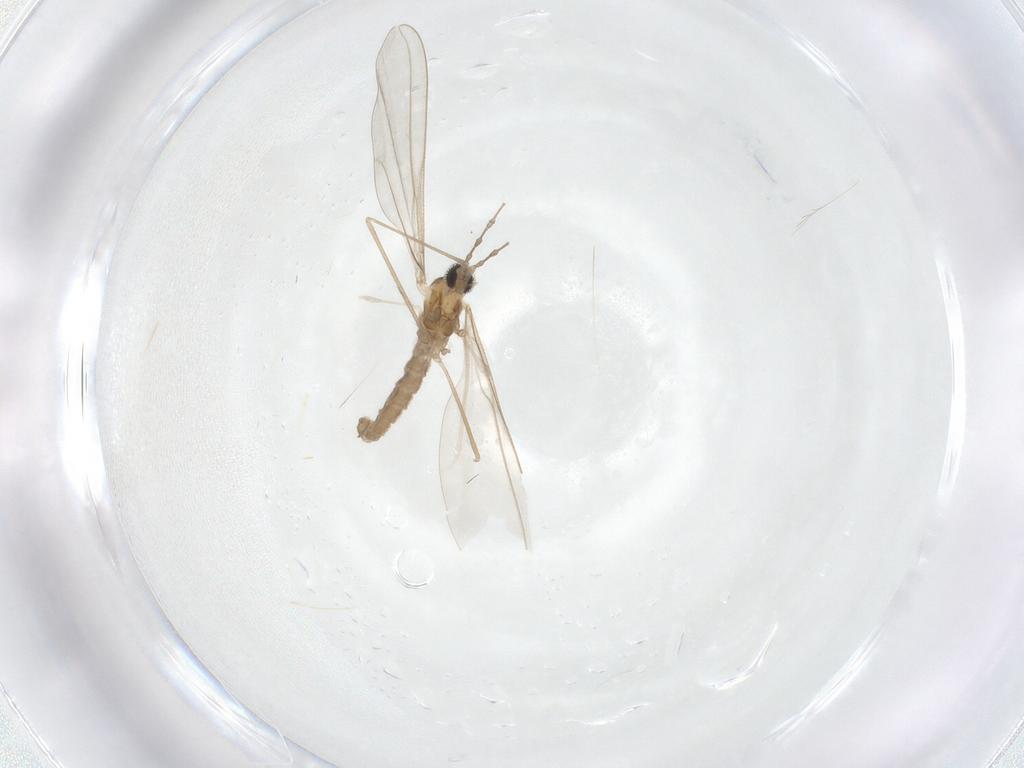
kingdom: Animalia
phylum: Arthropoda
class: Insecta
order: Diptera
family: Cecidomyiidae
